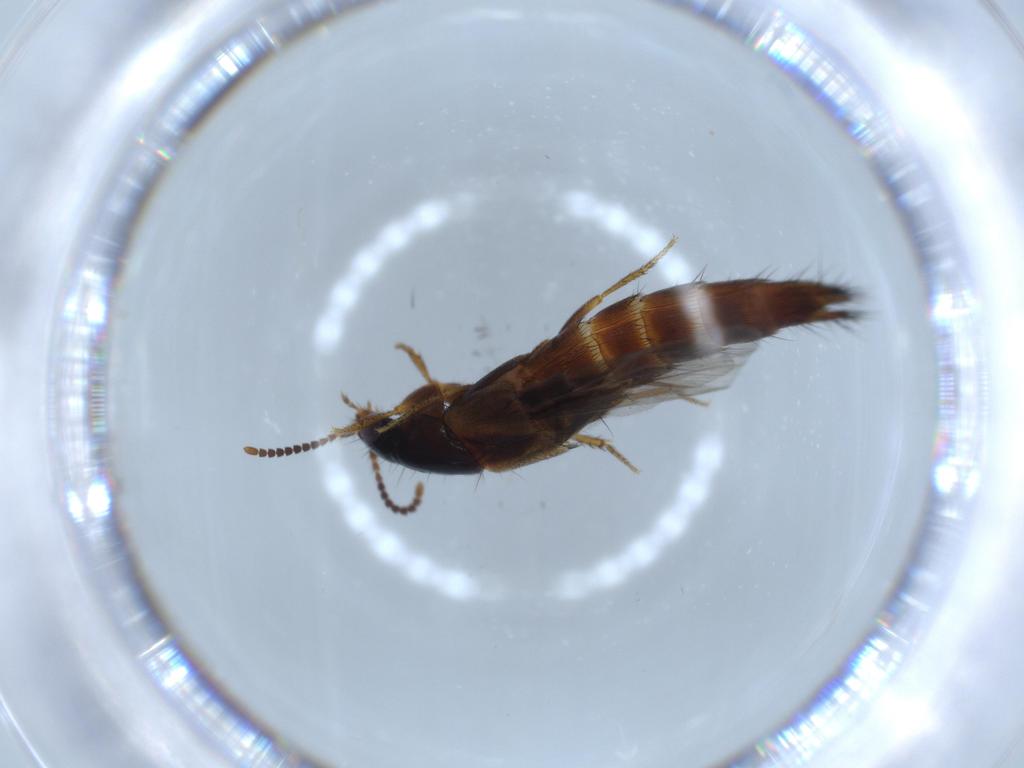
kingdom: Animalia
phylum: Arthropoda
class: Insecta
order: Coleoptera
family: Staphylinidae
